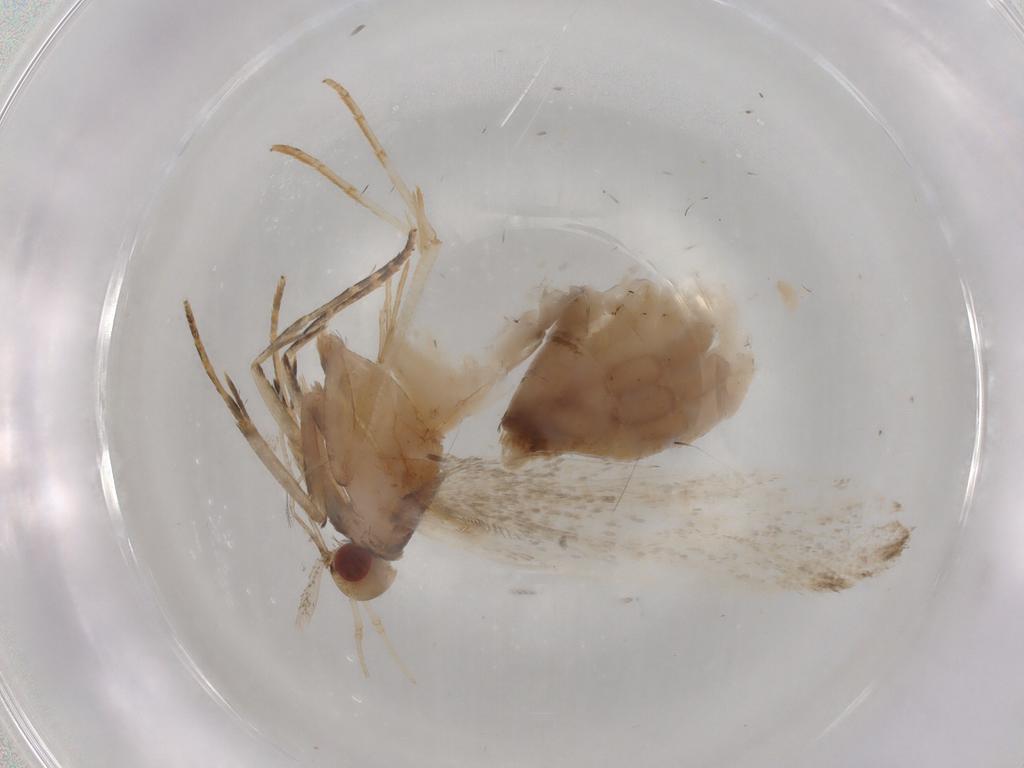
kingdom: Animalia
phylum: Arthropoda
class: Insecta
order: Lepidoptera
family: Gelechiidae
